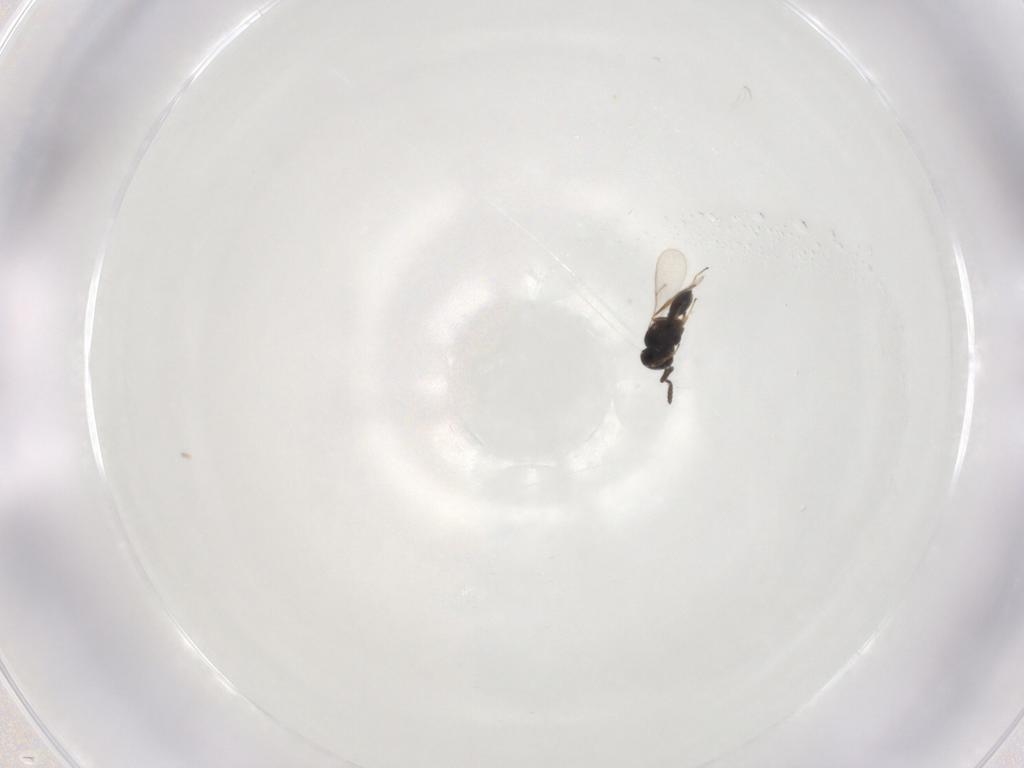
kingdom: Animalia
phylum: Arthropoda
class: Insecta
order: Hymenoptera
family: Scelionidae
